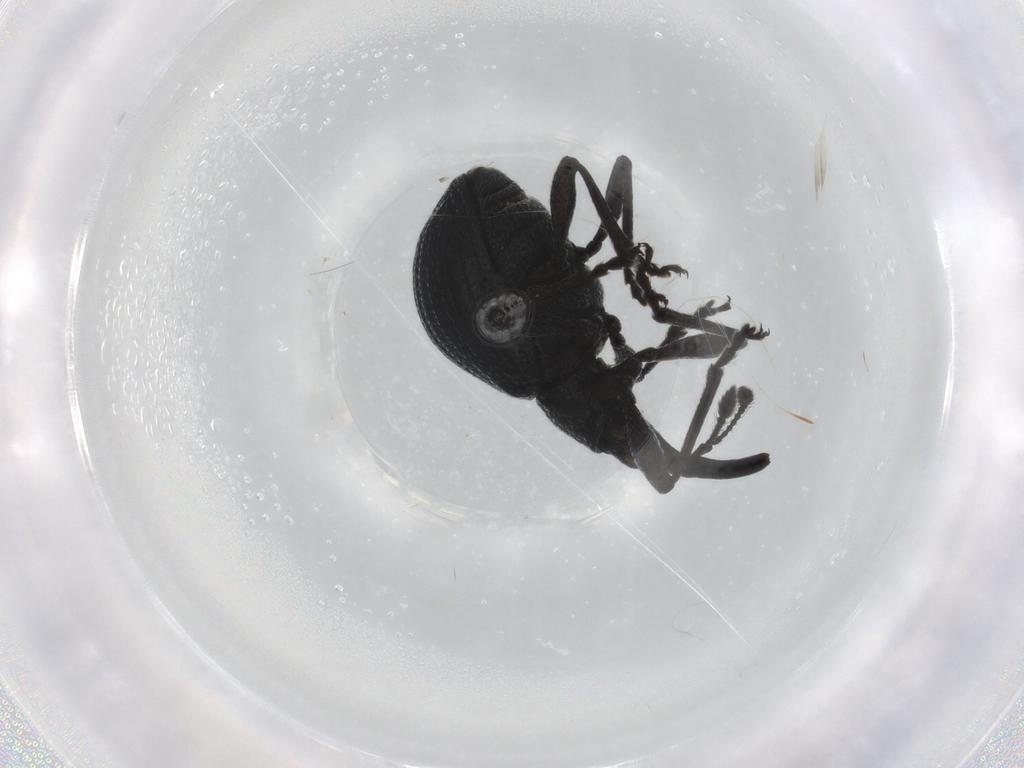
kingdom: Animalia
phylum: Arthropoda
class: Insecta
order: Coleoptera
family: Brentidae
